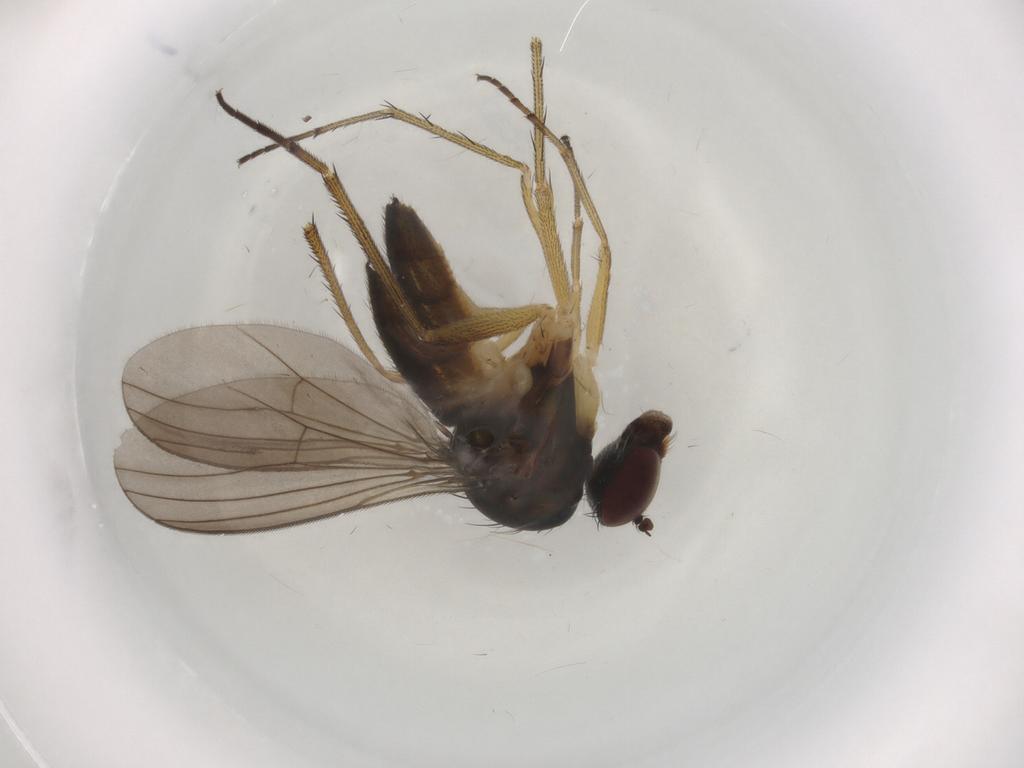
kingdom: Animalia
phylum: Arthropoda
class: Insecta
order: Diptera
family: Dolichopodidae
